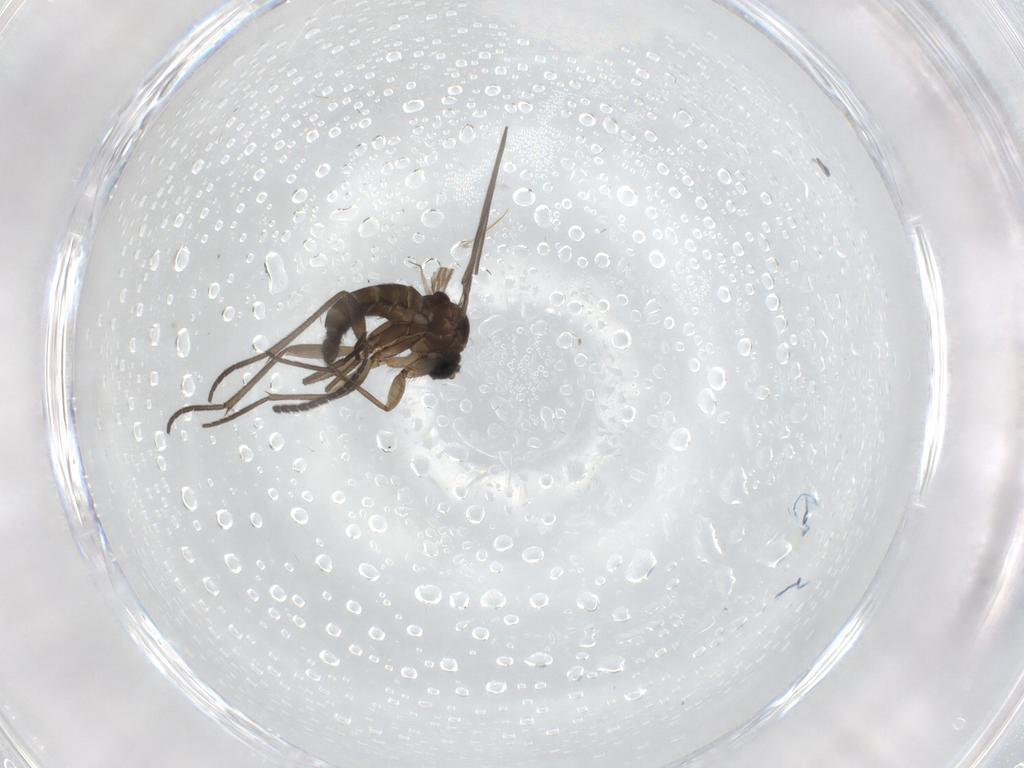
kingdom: Animalia
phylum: Arthropoda
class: Insecta
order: Diptera
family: Sciaridae
